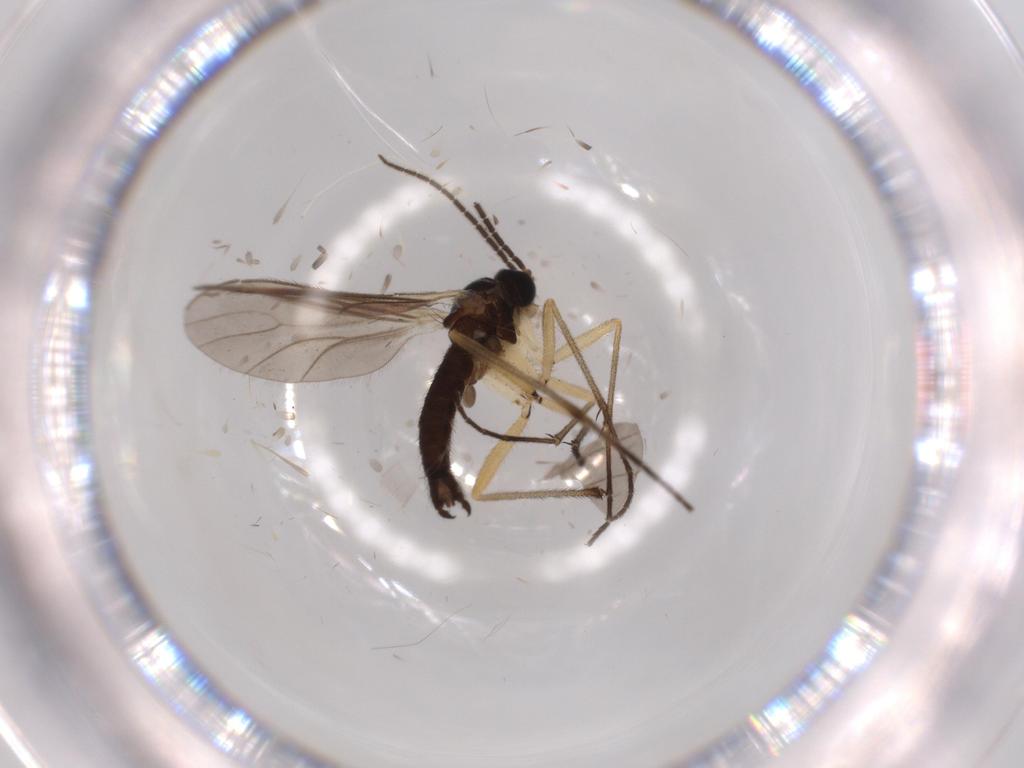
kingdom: Animalia
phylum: Arthropoda
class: Insecta
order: Diptera
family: Sciaridae
